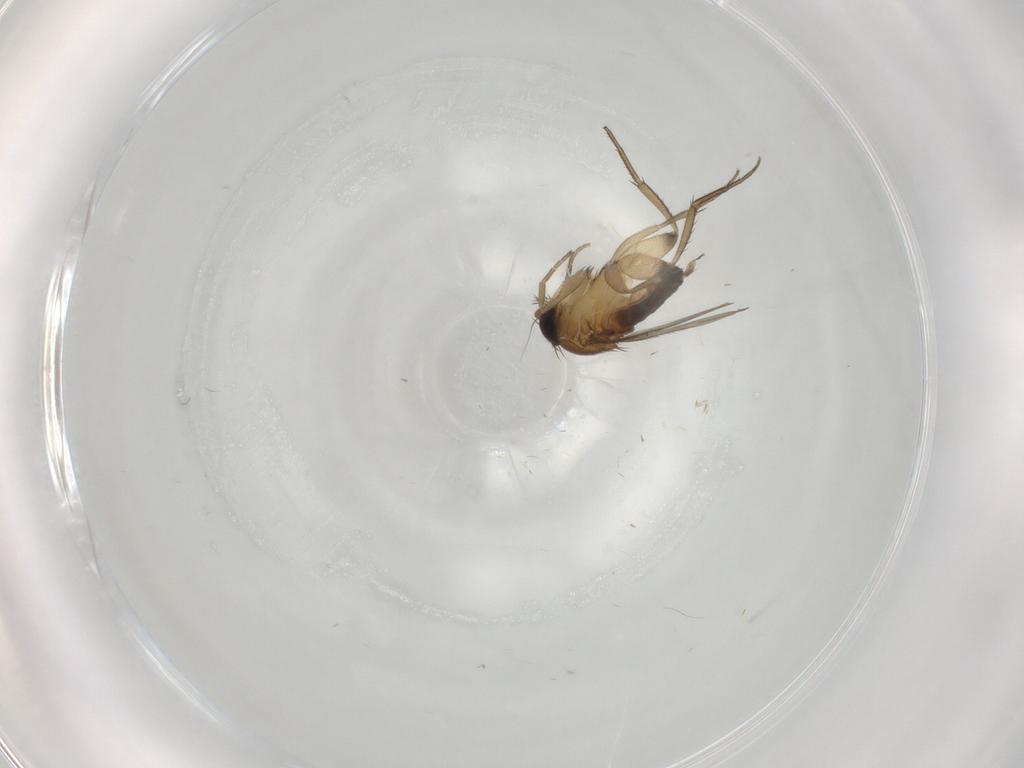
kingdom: Animalia
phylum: Arthropoda
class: Insecta
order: Diptera
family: Phoridae
